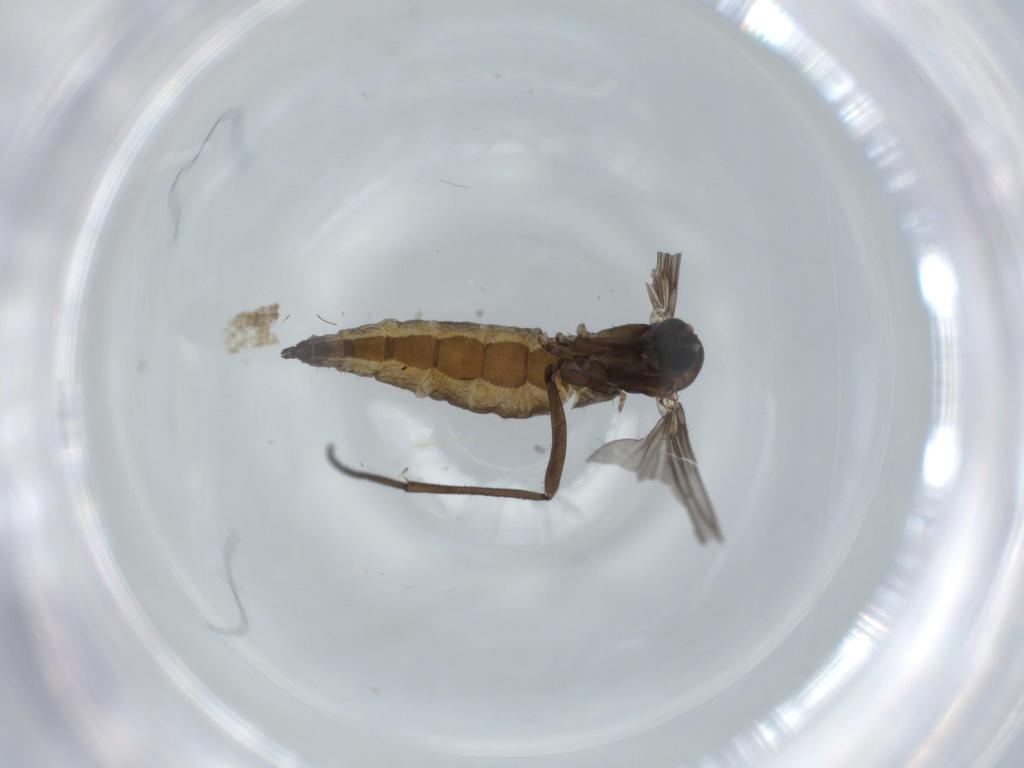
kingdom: Animalia
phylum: Arthropoda
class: Insecta
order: Diptera
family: Sciaridae
